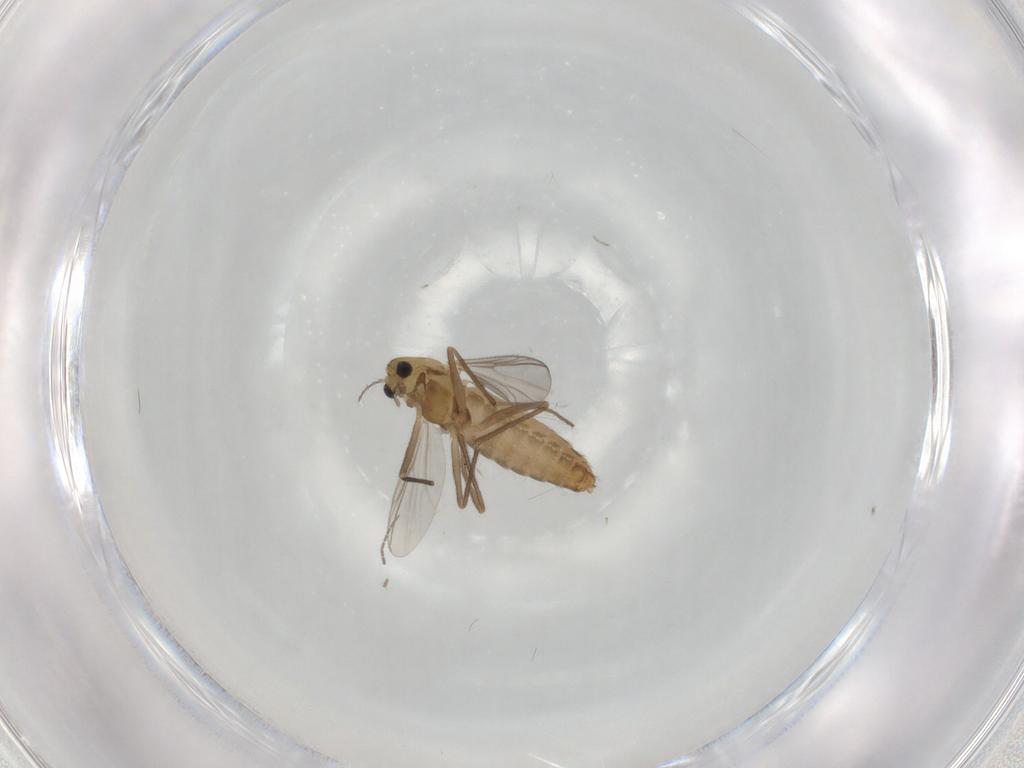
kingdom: Animalia
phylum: Arthropoda
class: Insecta
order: Diptera
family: Chironomidae
